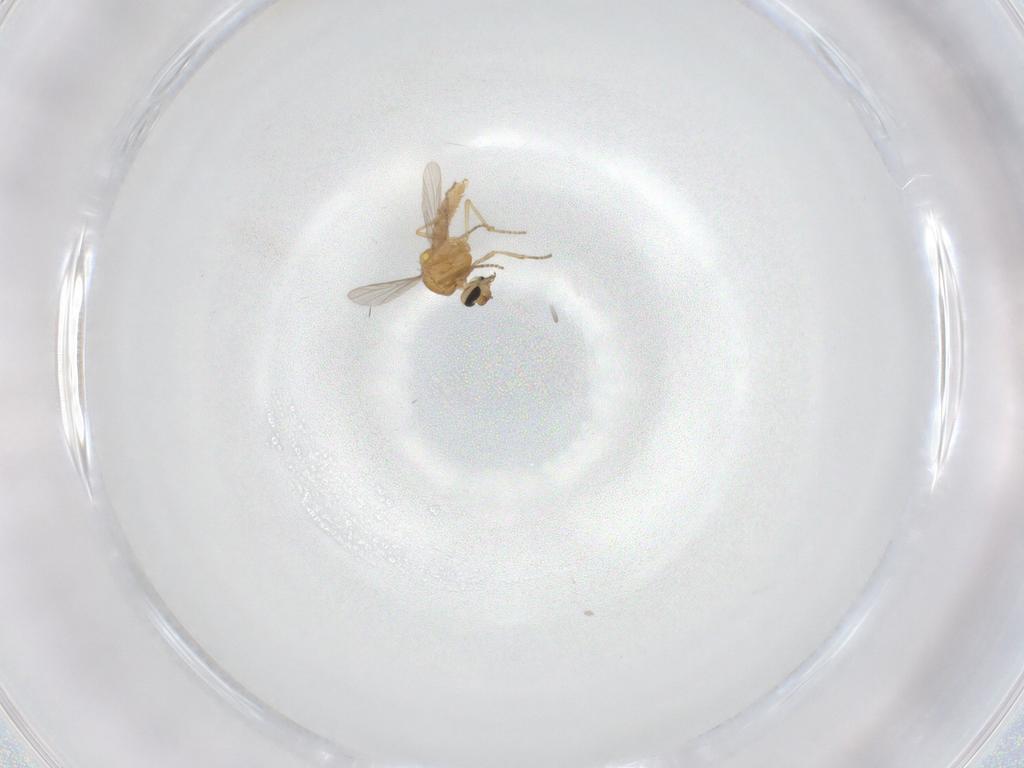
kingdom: Animalia
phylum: Arthropoda
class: Insecta
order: Diptera
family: Ceratopogonidae
